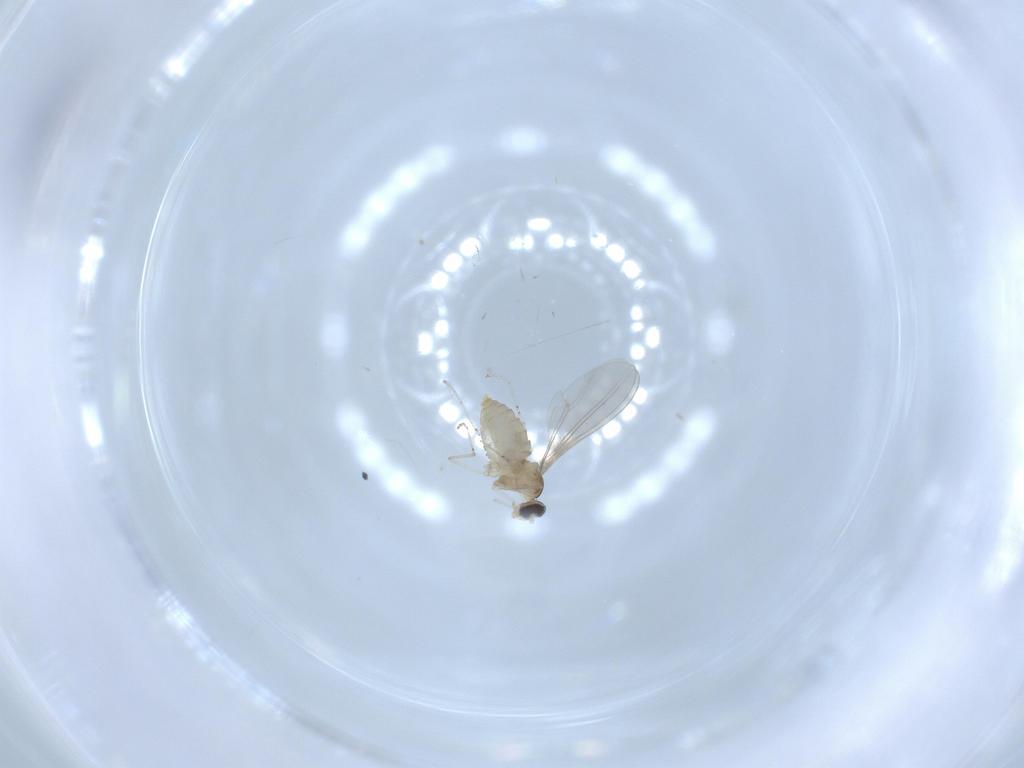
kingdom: Animalia
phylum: Arthropoda
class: Insecta
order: Diptera
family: Cecidomyiidae
